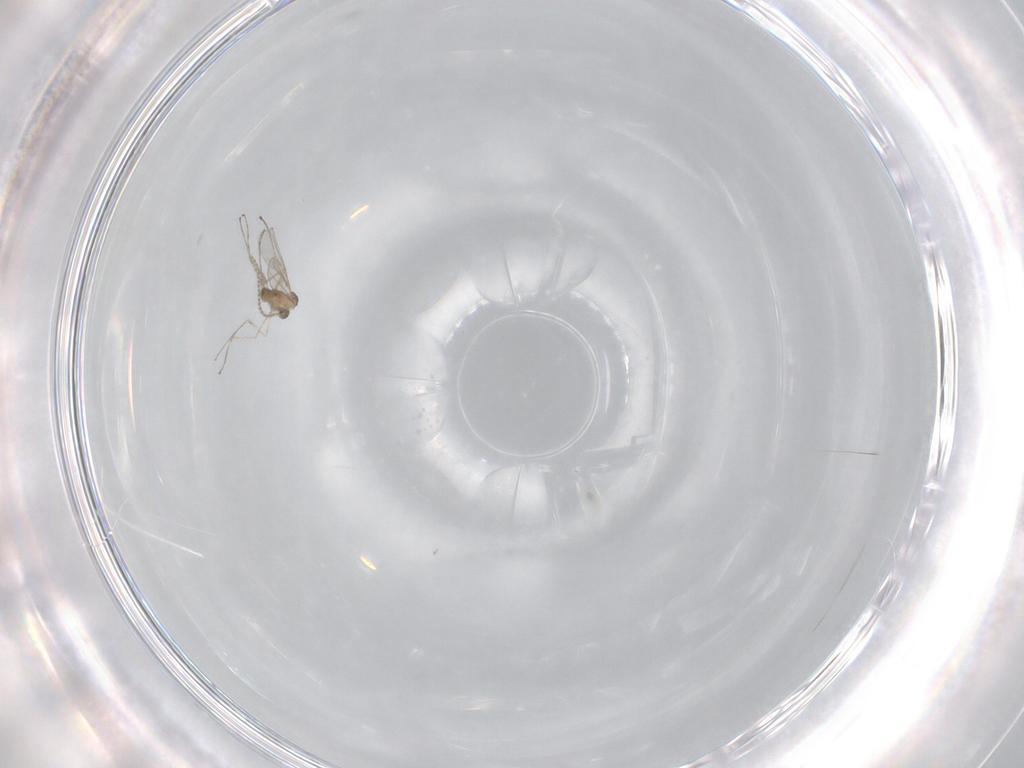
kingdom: Animalia
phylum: Arthropoda
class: Insecta
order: Diptera
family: Cecidomyiidae
